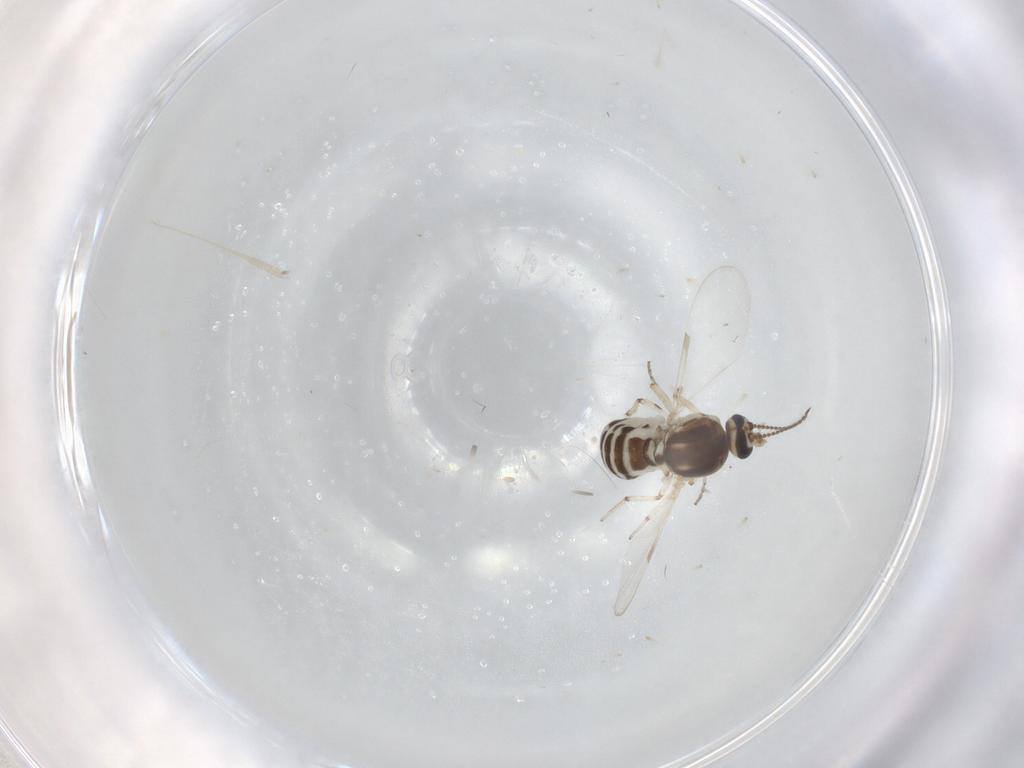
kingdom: Animalia
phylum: Arthropoda
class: Insecta
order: Diptera
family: Ceratopogonidae
